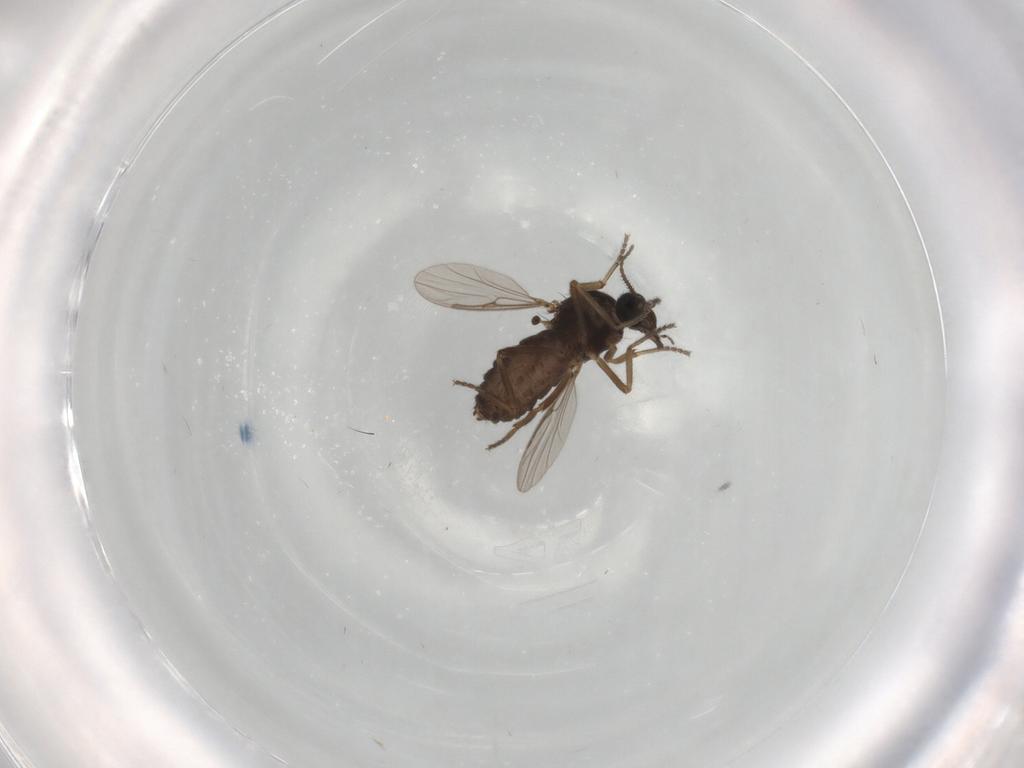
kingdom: Animalia
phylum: Arthropoda
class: Insecta
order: Diptera
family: Ceratopogonidae
